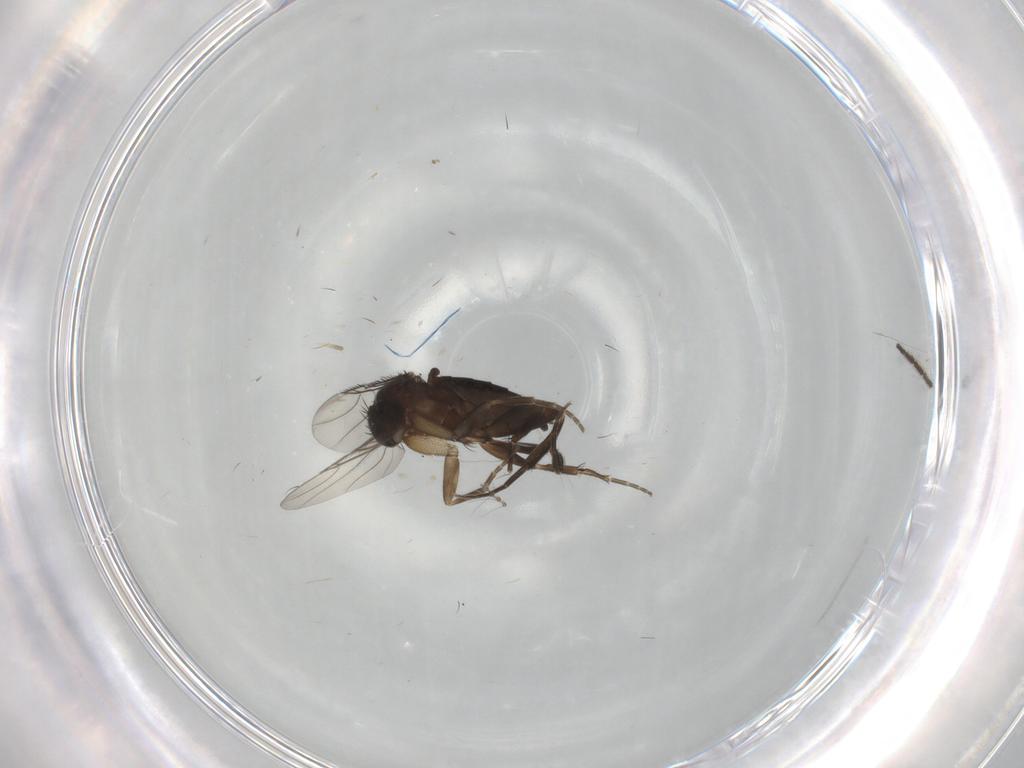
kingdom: Animalia
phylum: Arthropoda
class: Insecta
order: Diptera
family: Phoridae
